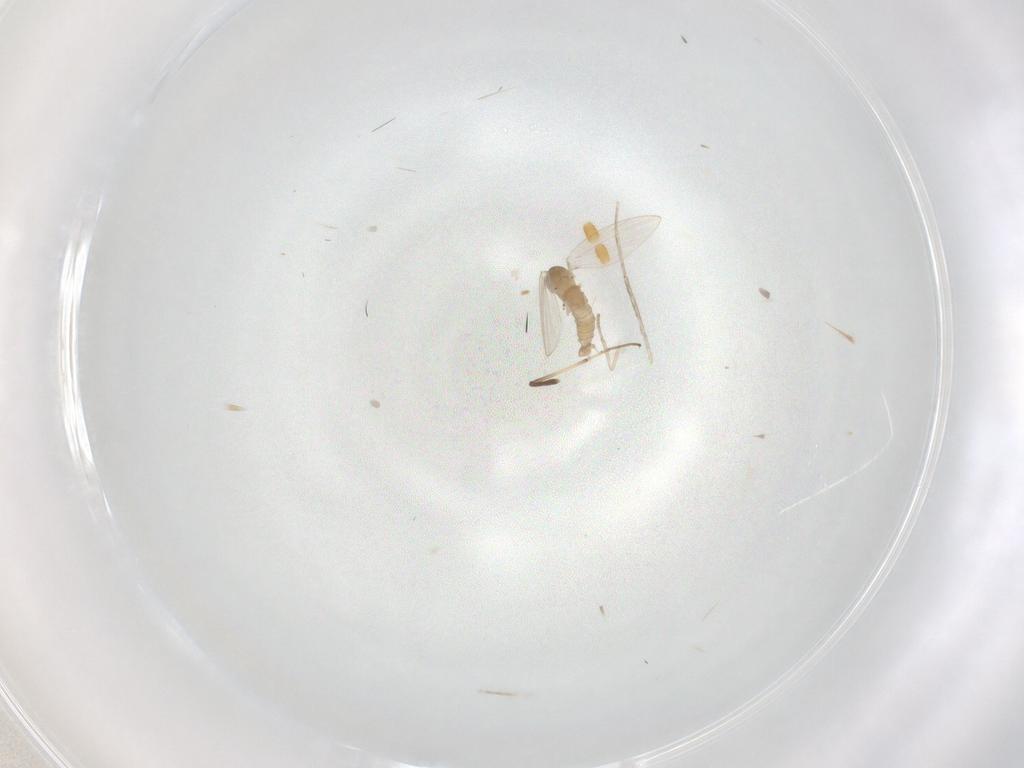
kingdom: Animalia
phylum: Arthropoda
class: Insecta
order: Diptera
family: Psychodidae
